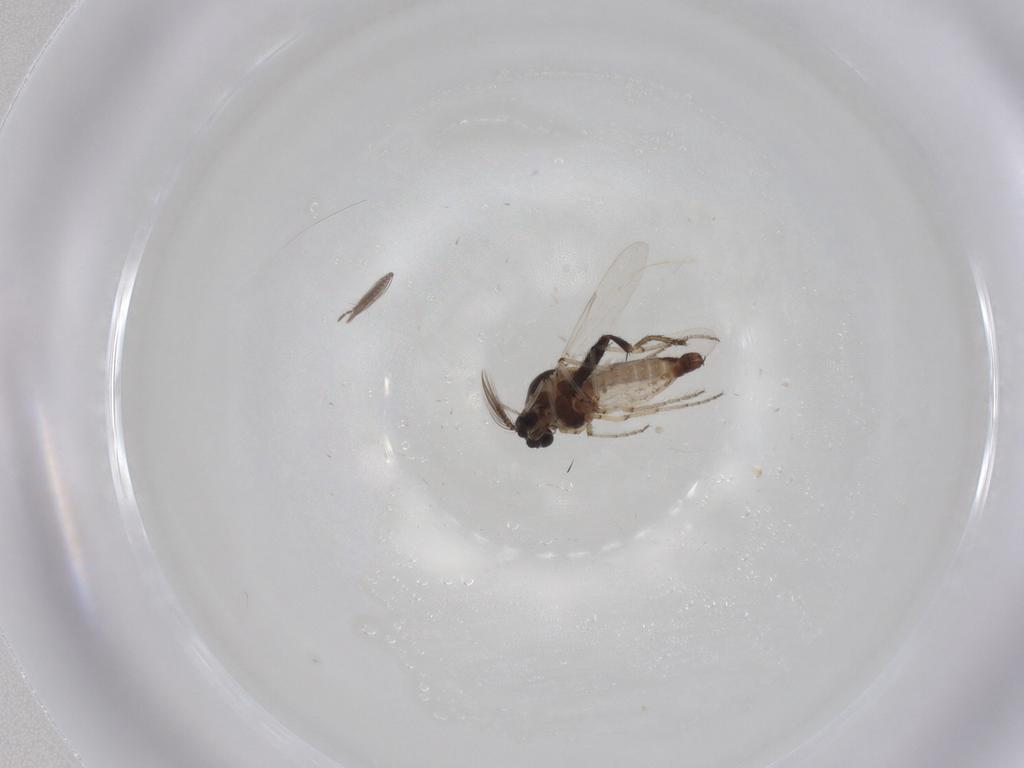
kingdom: Animalia
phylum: Arthropoda
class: Insecta
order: Diptera
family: Ceratopogonidae
